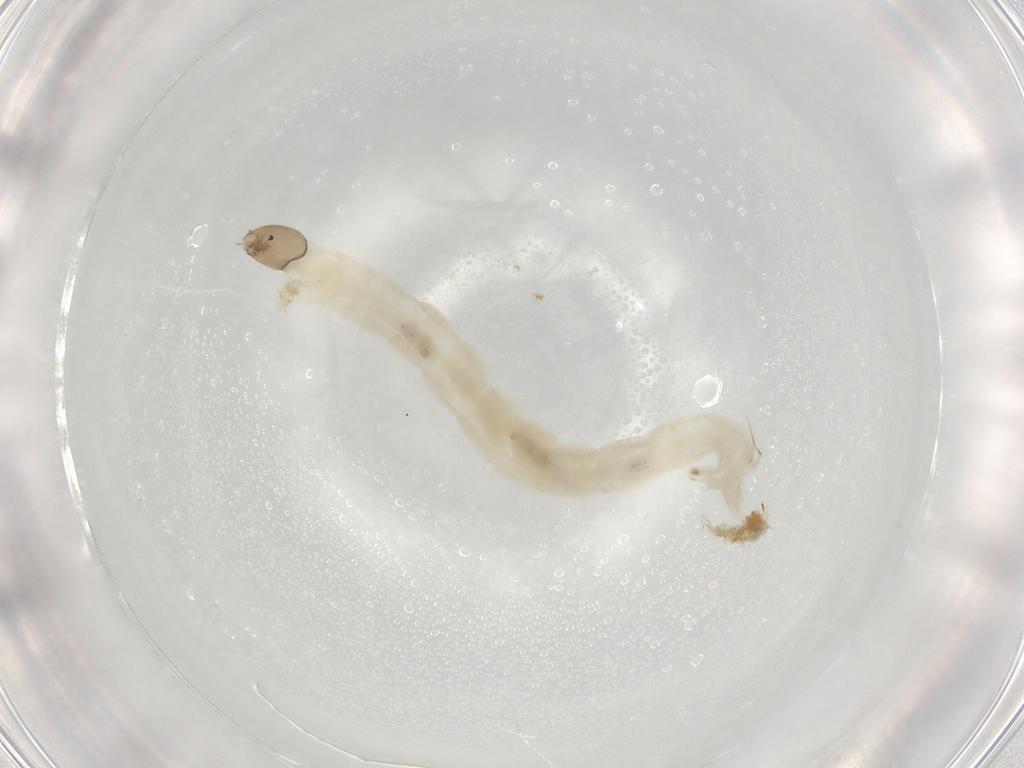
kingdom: Animalia
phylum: Arthropoda
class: Insecta
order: Diptera
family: Chironomidae
